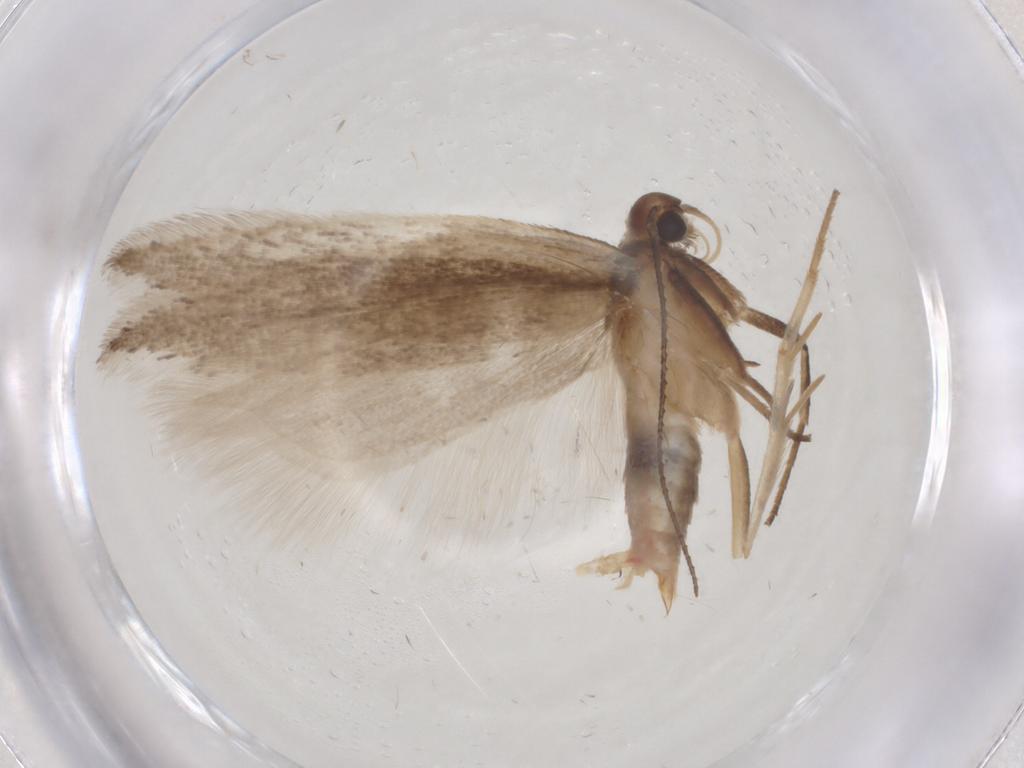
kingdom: Animalia
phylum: Arthropoda
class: Insecta
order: Lepidoptera
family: Gelechiidae
